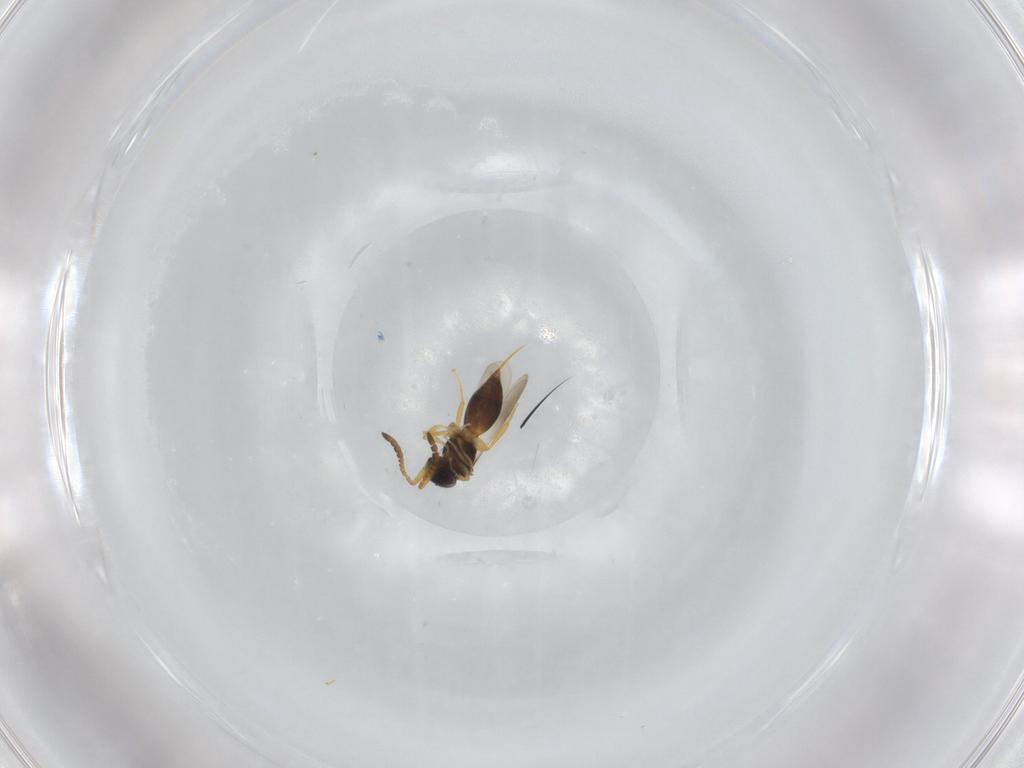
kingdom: Animalia
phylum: Arthropoda
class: Insecta
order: Hymenoptera
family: Ceraphronidae
